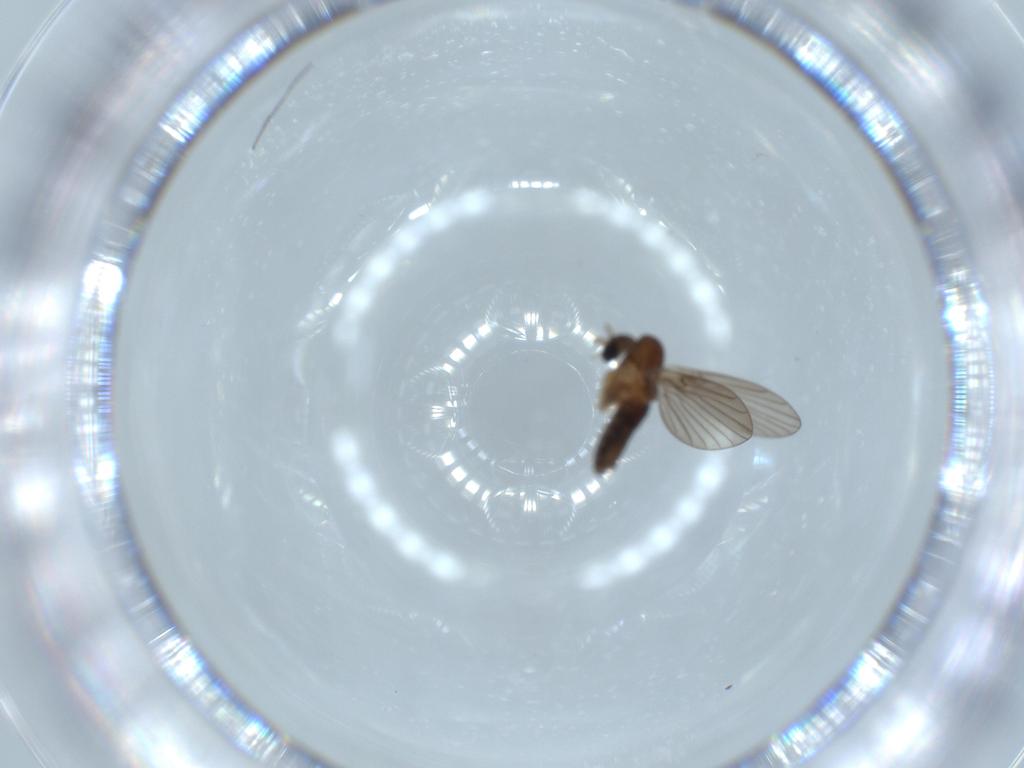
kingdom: Animalia
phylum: Arthropoda
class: Insecta
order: Diptera
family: Psychodidae
